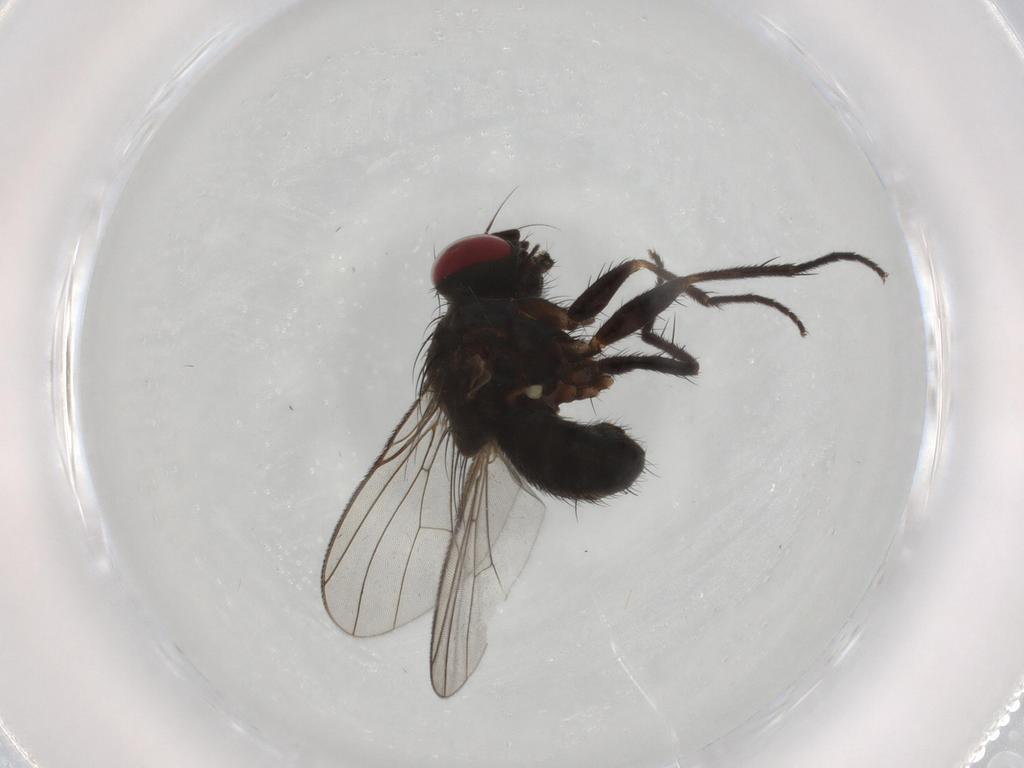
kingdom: Animalia
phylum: Arthropoda
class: Insecta
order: Diptera
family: Muscidae
